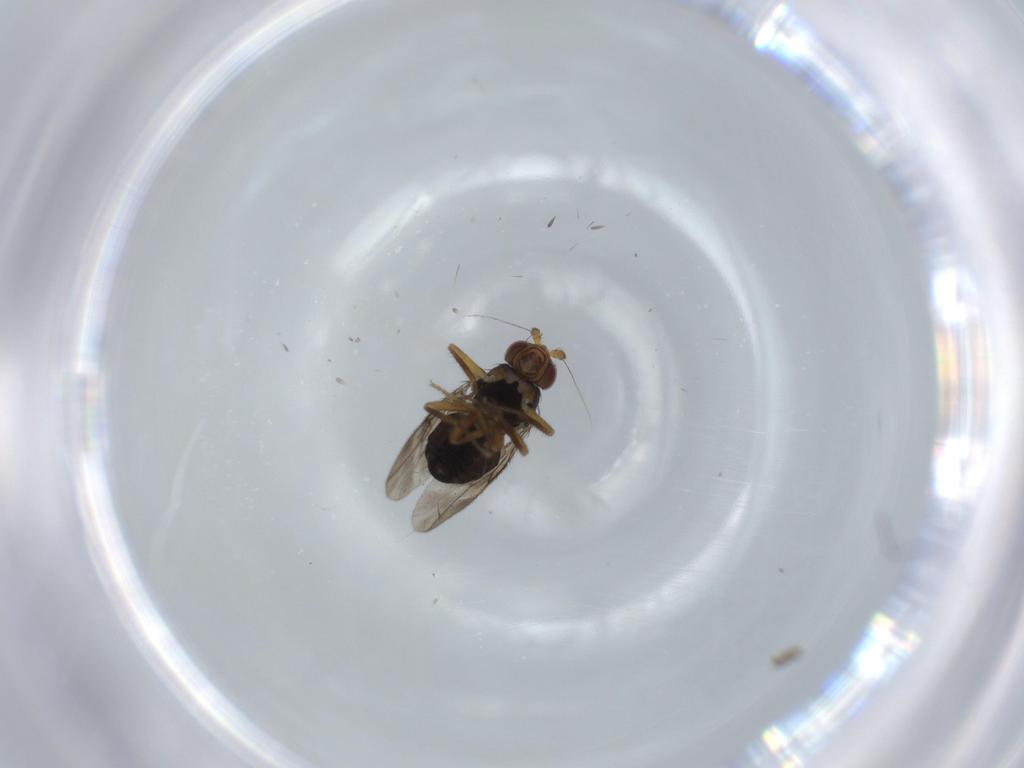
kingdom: Animalia
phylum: Arthropoda
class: Insecta
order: Diptera
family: Sphaeroceridae
